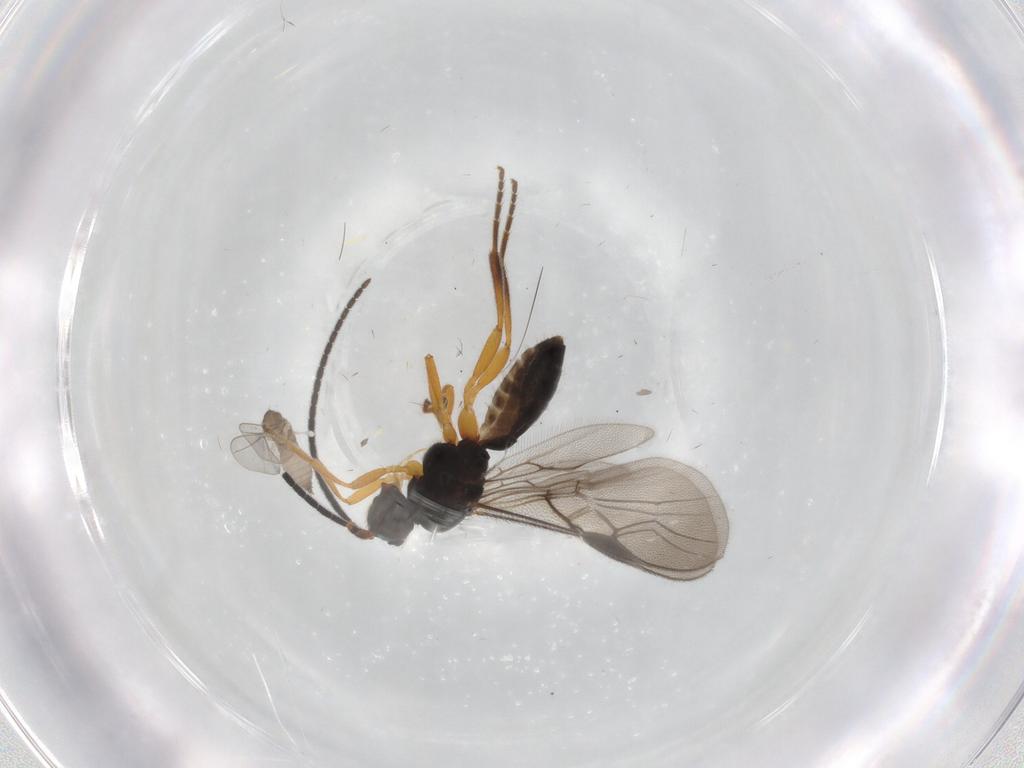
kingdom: Animalia
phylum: Arthropoda
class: Insecta
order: Diptera
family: Cecidomyiidae
